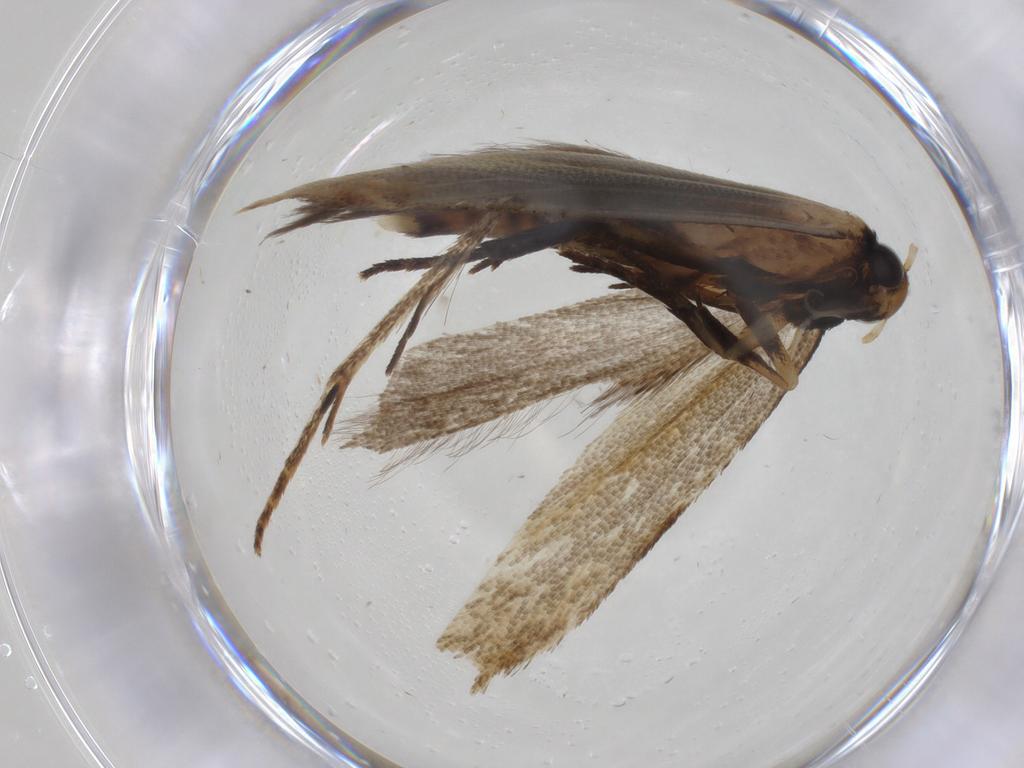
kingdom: Animalia
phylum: Arthropoda
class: Insecta
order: Lepidoptera
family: Gelechiidae
